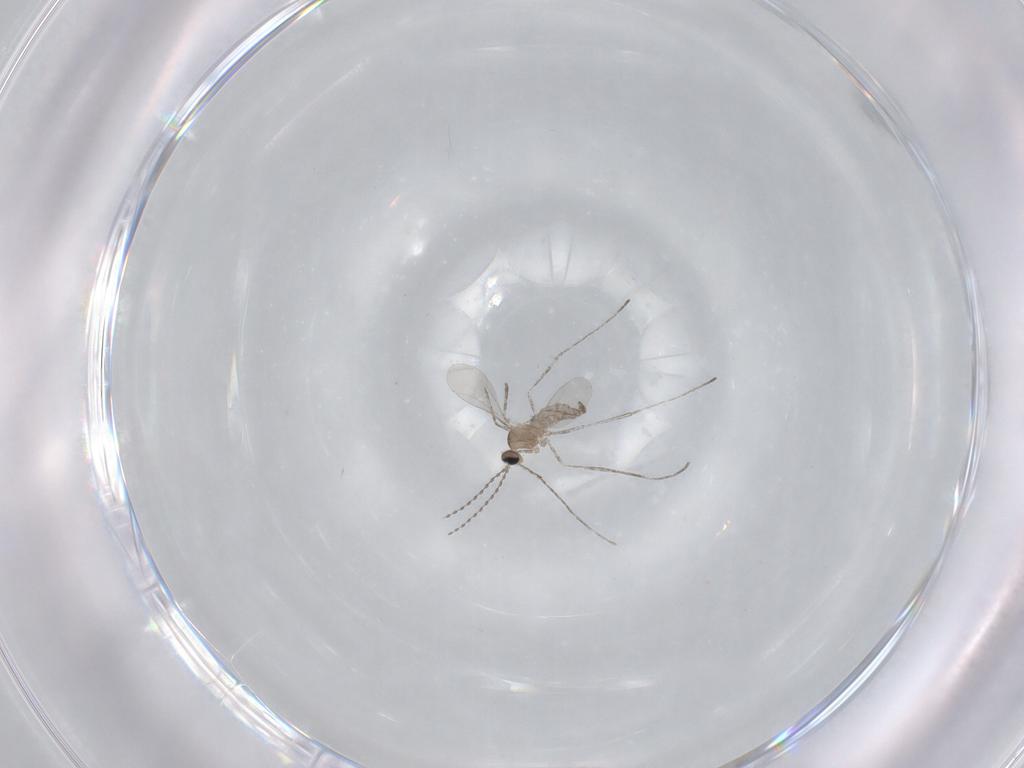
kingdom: Animalia
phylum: Arthropoda
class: Insecta
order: Diptera
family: Cecidomyiidae
